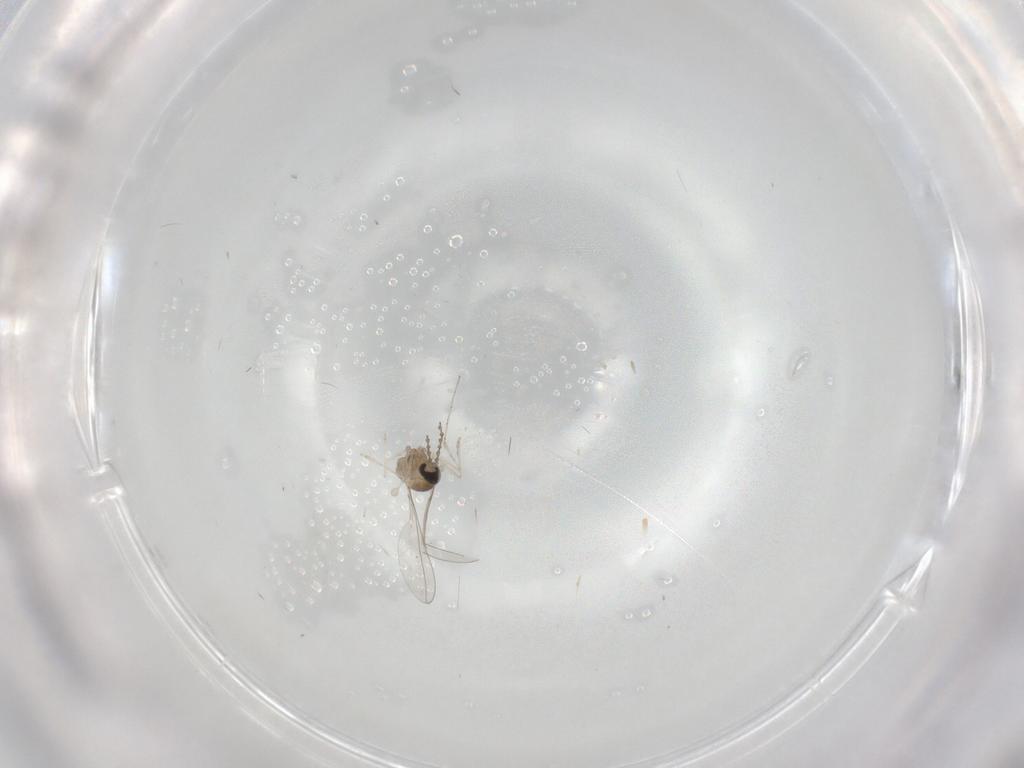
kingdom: Animalia
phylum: Arthropoda
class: Insecta
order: Diptera
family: Cecidomyiidae
